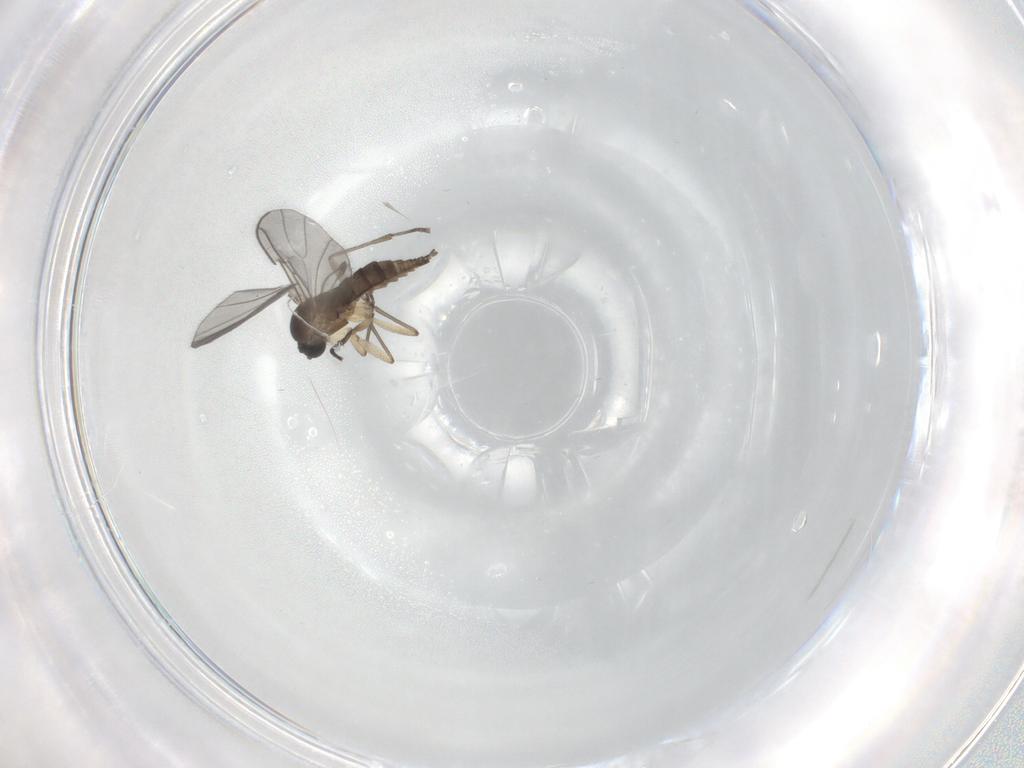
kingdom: Animalia
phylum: Arthropoda
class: Insecta
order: Diptera
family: Sciaridae
